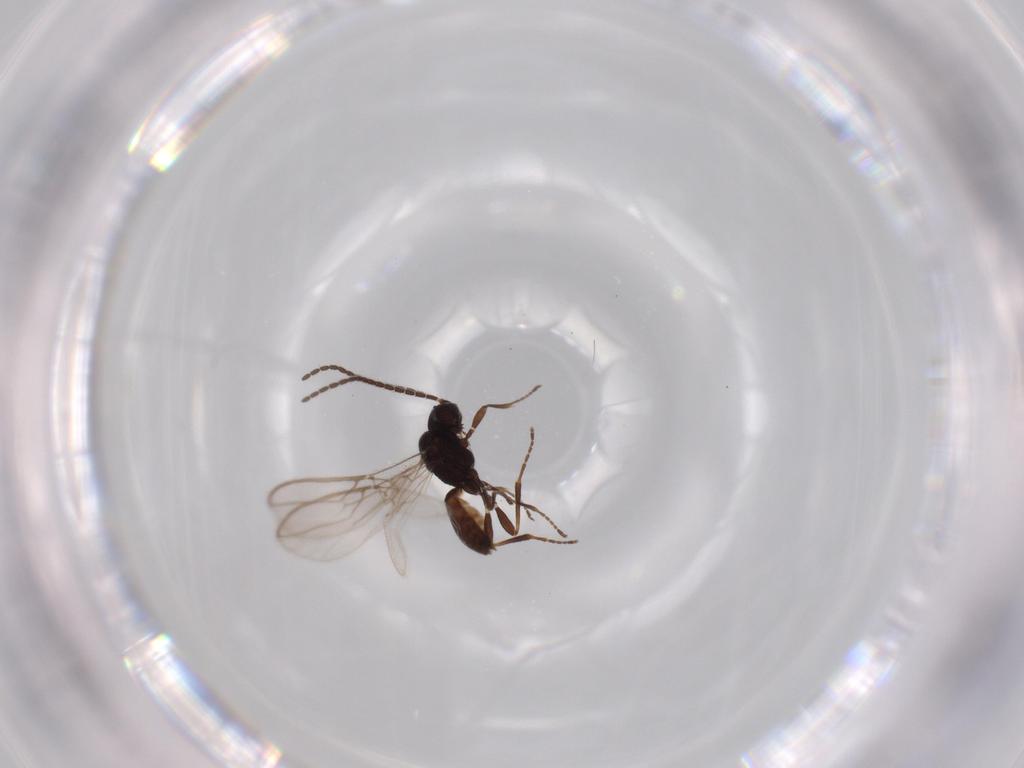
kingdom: Animalia
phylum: Arthropoda
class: Insecta
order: Hymenoptera
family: Braconidae
